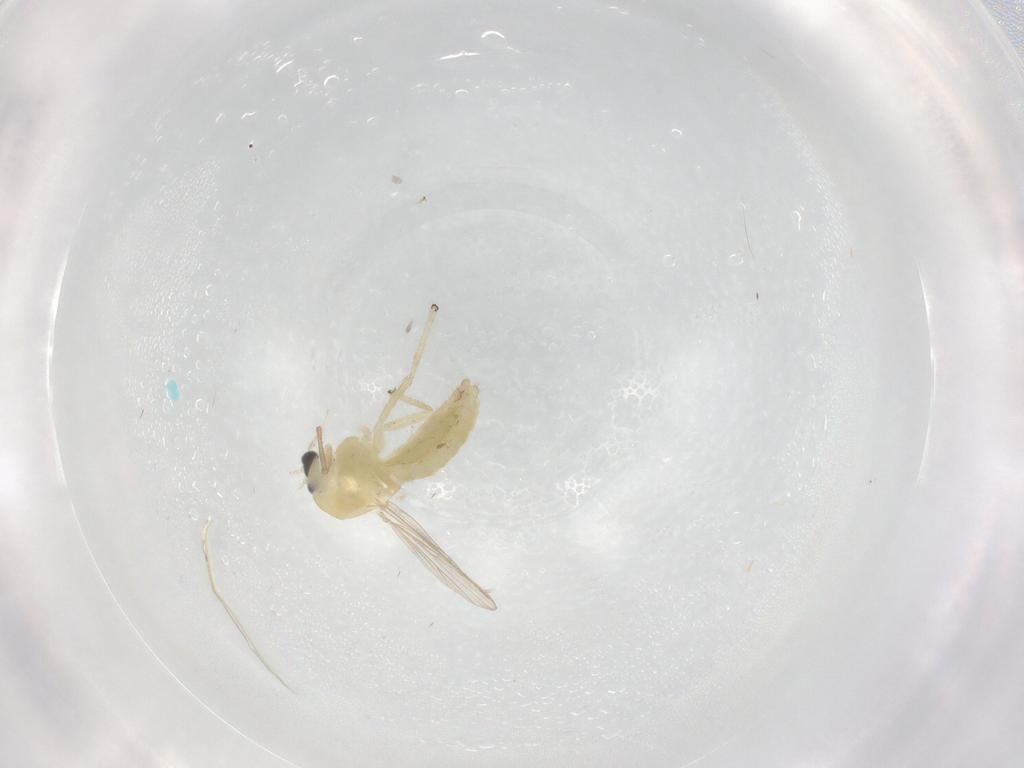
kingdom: Animalia
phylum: Arthropoda
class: Insecta
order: Diptera
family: Chironomidae
